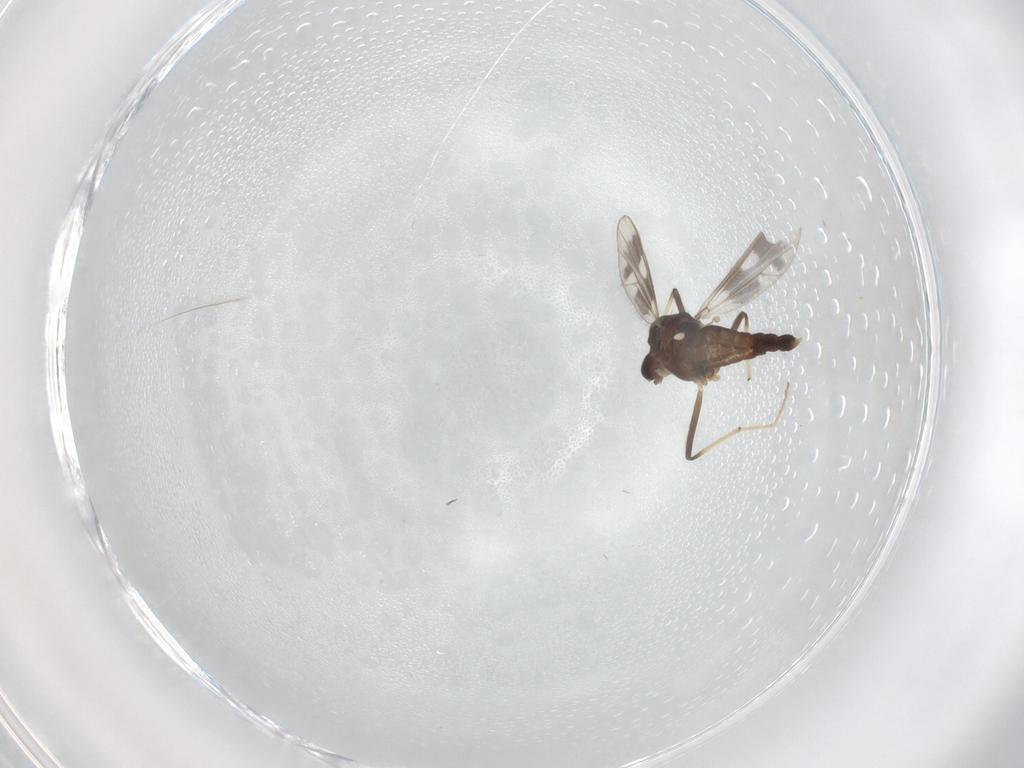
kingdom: Animalia
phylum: Arthropoda
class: Insecta
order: Diptera
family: Chironomidae
